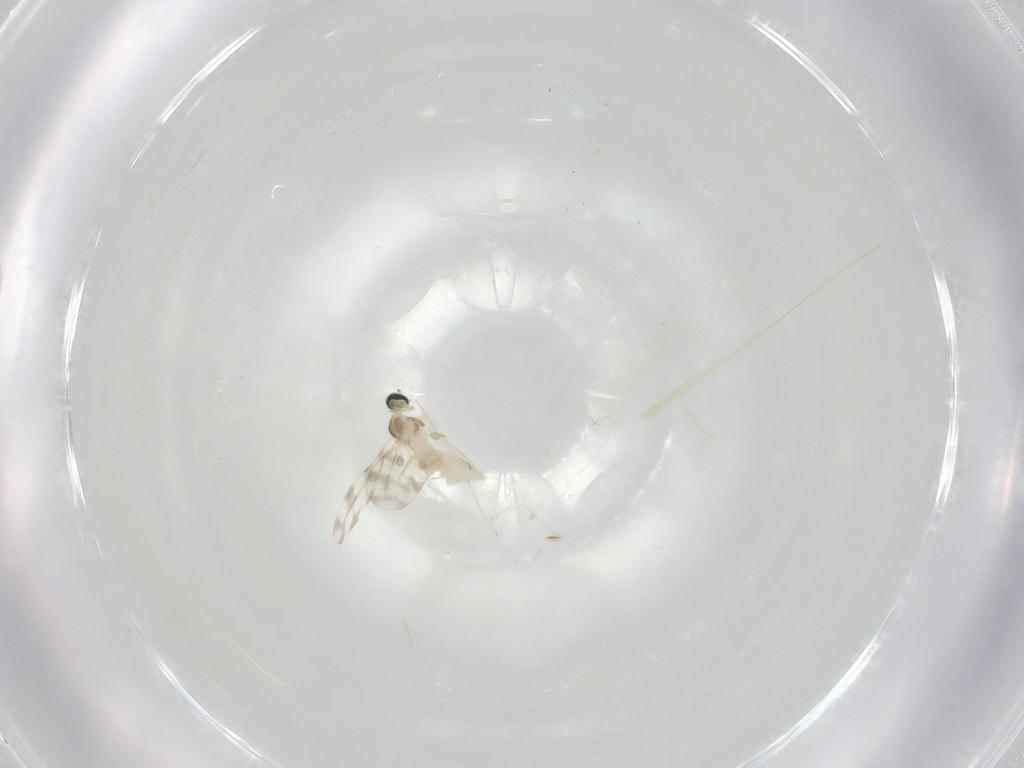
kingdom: Animalia
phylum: Arthropoda
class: Insecta
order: Diptera
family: Cecidomyiidae
